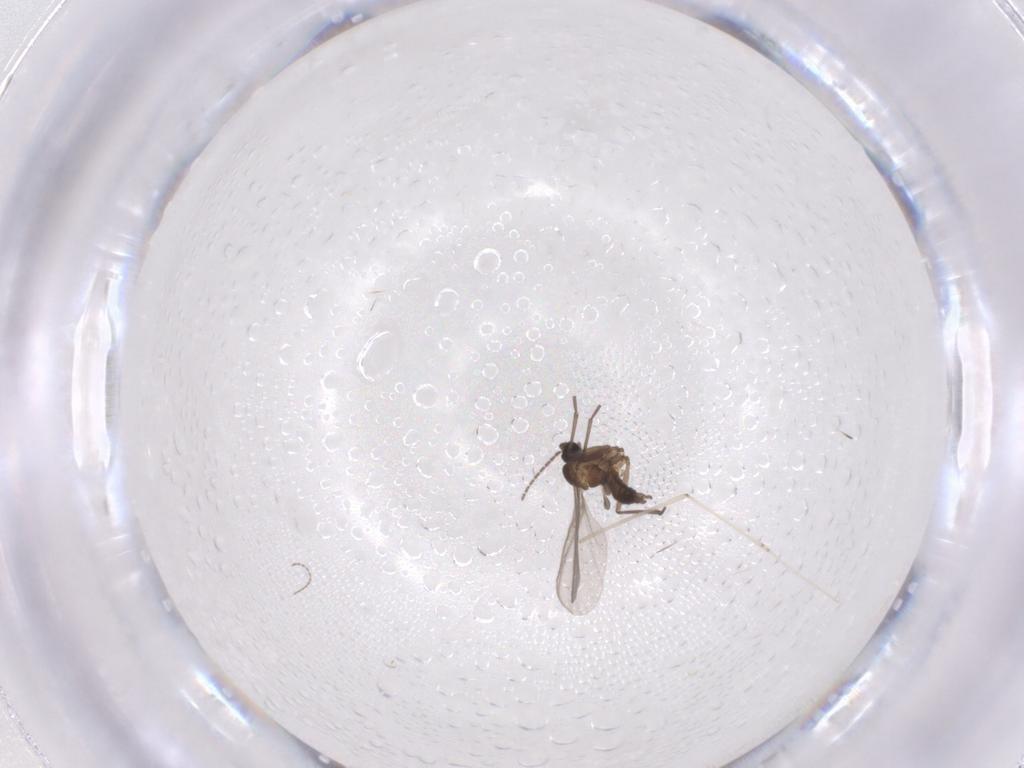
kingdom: Animalia
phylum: Arthropoda
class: Insecta
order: Diptera
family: Sciaridae
